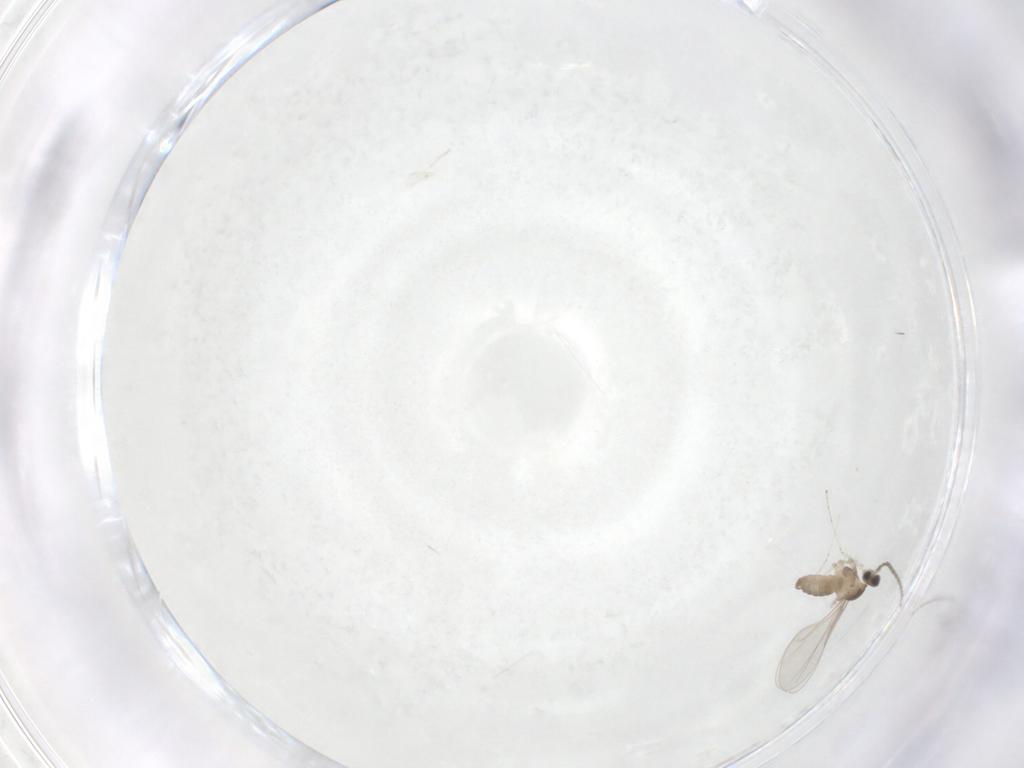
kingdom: Animalia
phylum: Arthropoda
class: Insecta
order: Diptera
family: Cecidomyiidae
